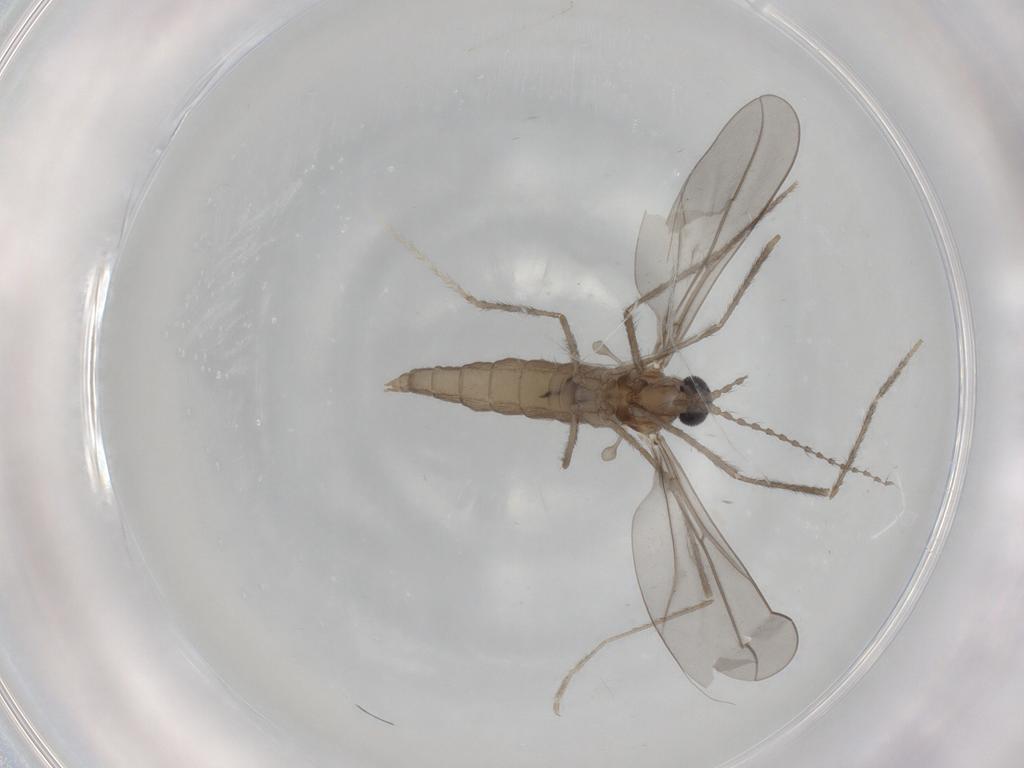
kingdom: Animalia
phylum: Arthropoda
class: Insecta
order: Diptera
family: Cecidomyiidae
